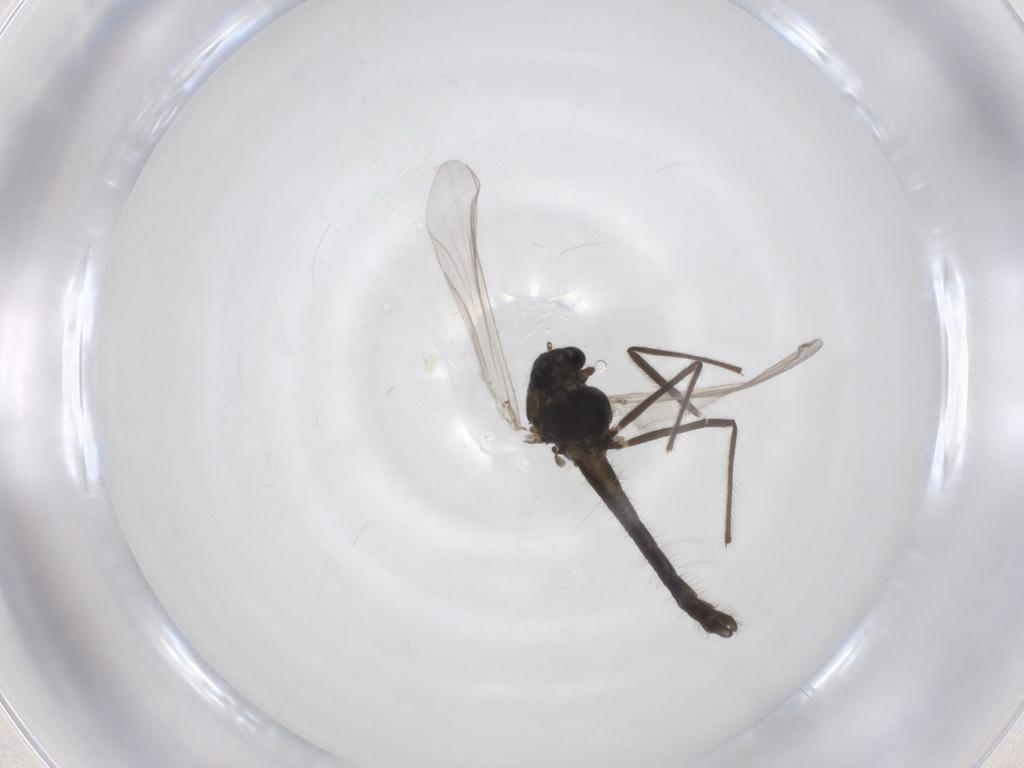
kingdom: Animalia
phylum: Arthropoda
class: Insecta
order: Diptera
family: Chironomidae
